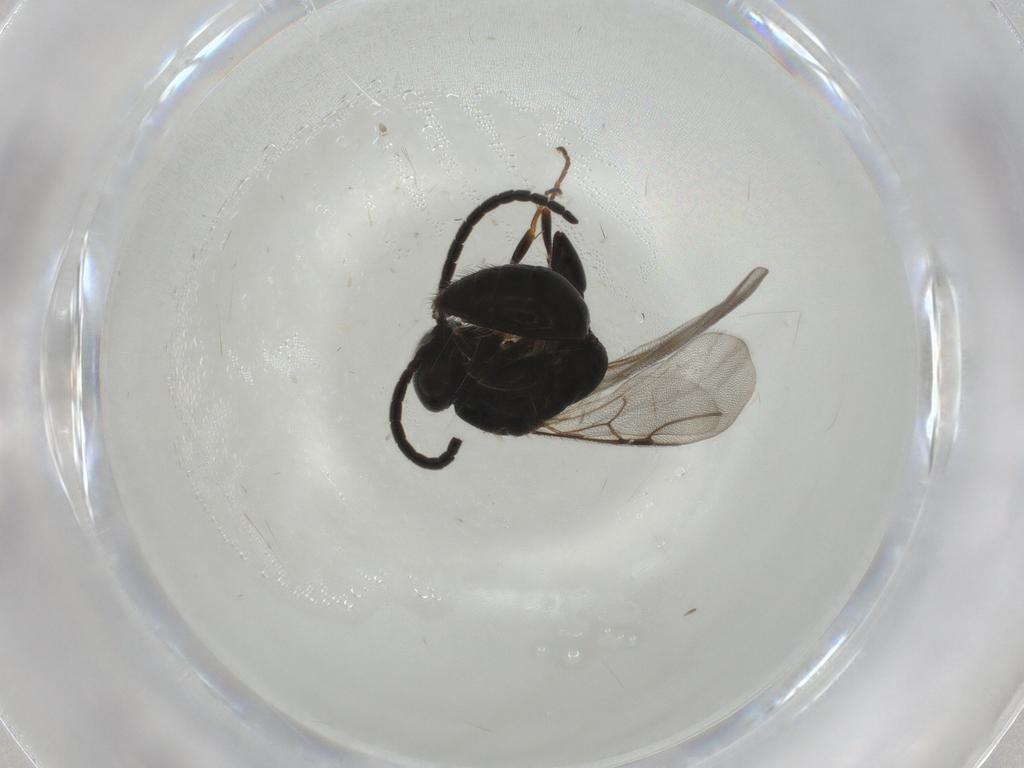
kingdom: Animalia
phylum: Arthropoda
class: Insecta
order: Hymenoptera
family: Braconidae
